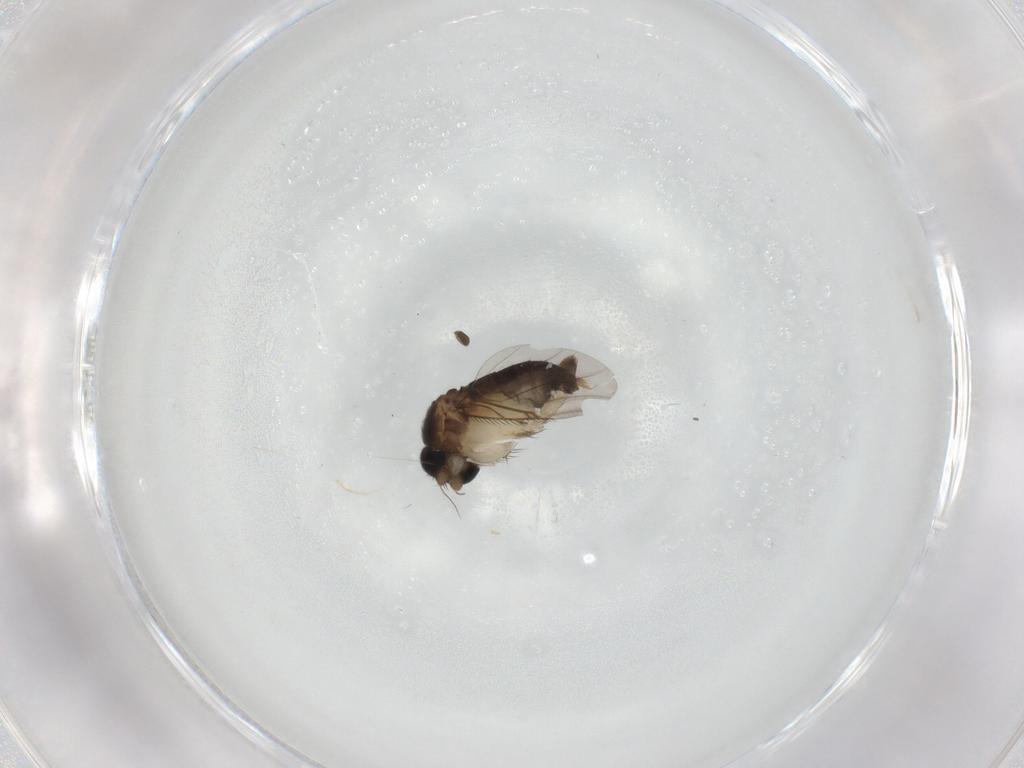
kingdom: Animalia
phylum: Arthropoda
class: Insecta
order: Diptera
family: Phoridae
